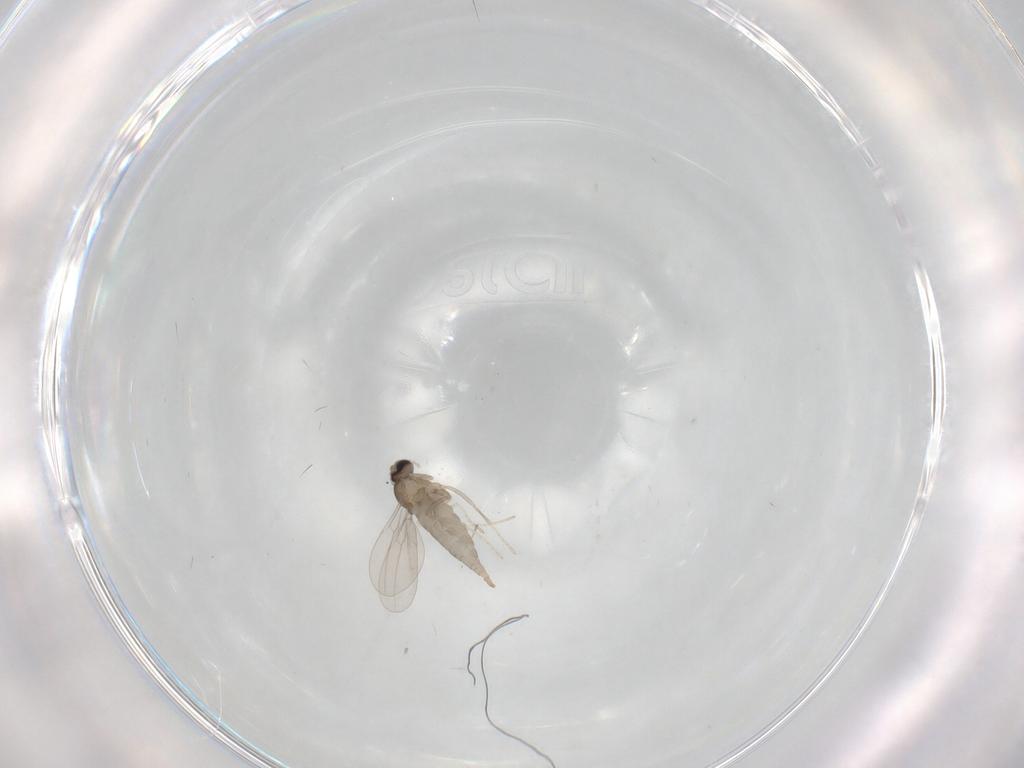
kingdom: Animalia
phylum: Arthropoda
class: Insecta
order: Diptera
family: Cecidomyiidae
